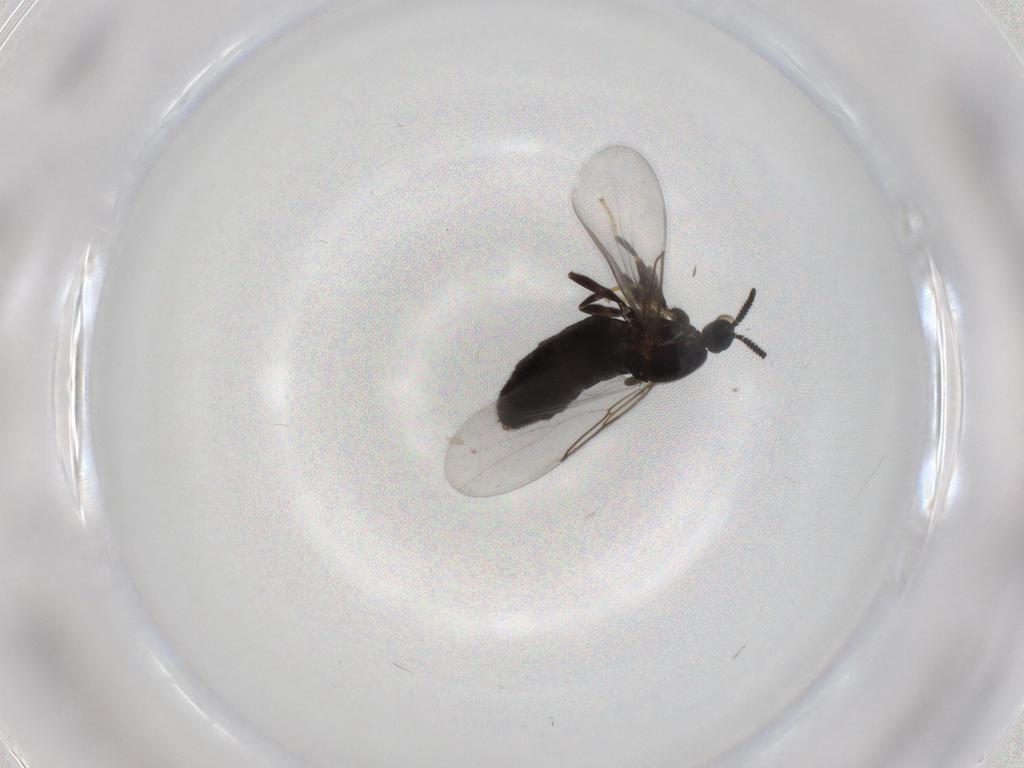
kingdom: Animalia
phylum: Arthropoda
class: Insecta
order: Diptera
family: Scatopsidae
